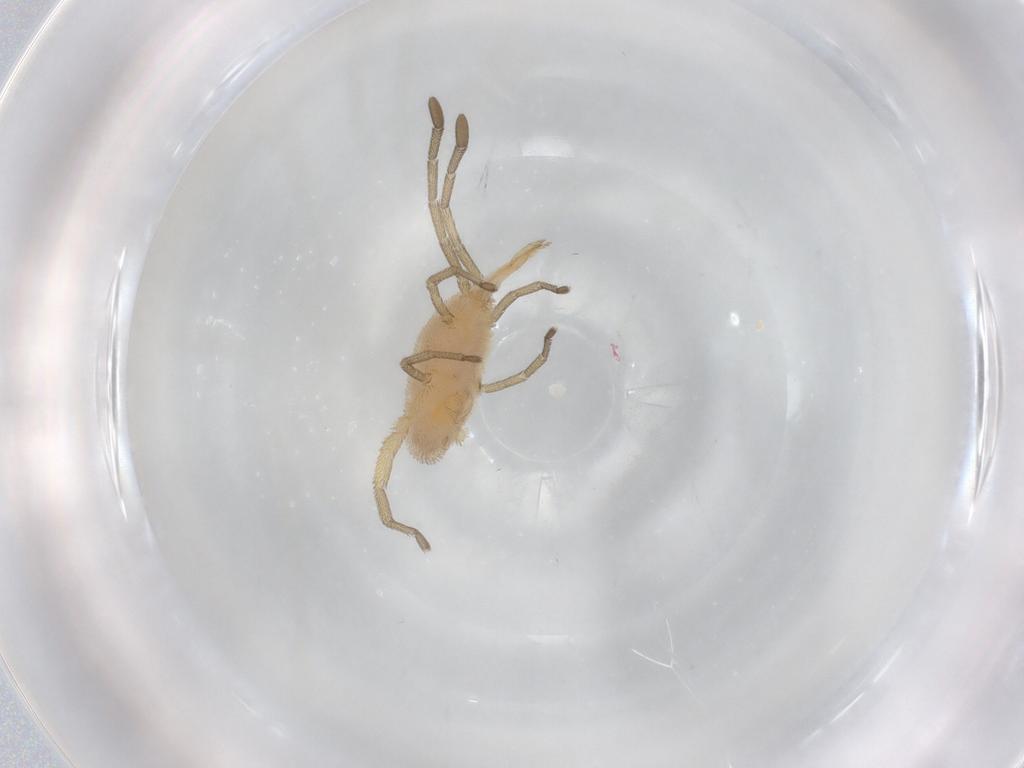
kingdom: Animalia
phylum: Arthropoda
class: Arachnida
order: Trombidiformes
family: Smarididae
